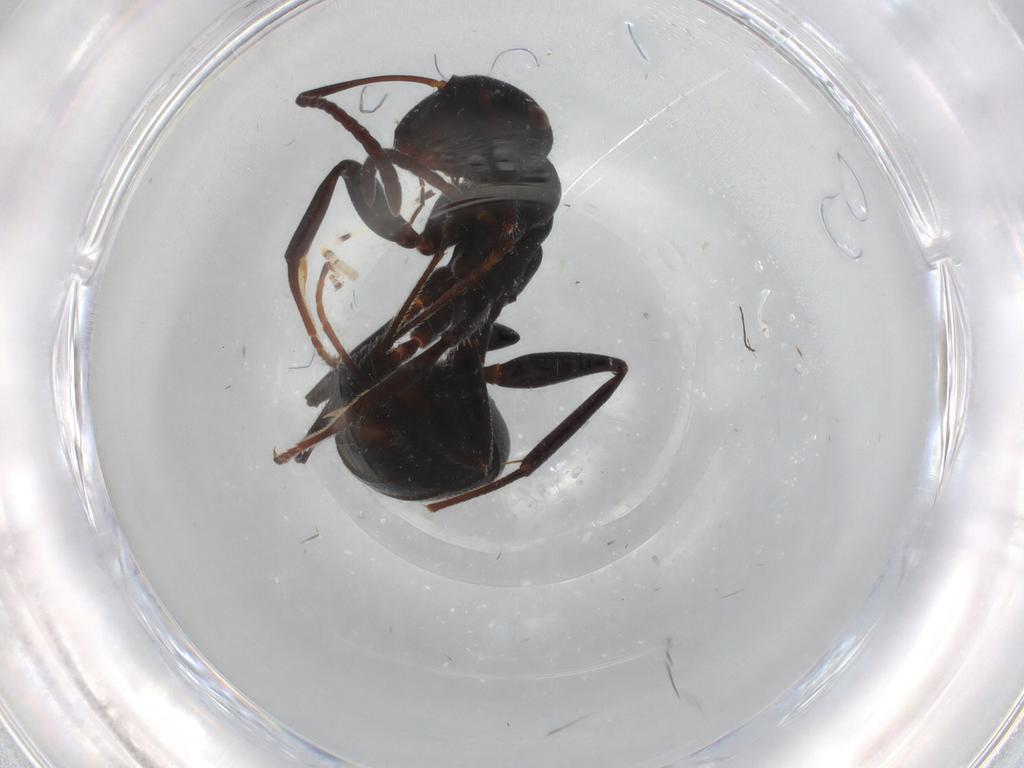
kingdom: Animalia
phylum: Arthropoda
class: Insecta
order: Hymenoptera
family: Formicidae
